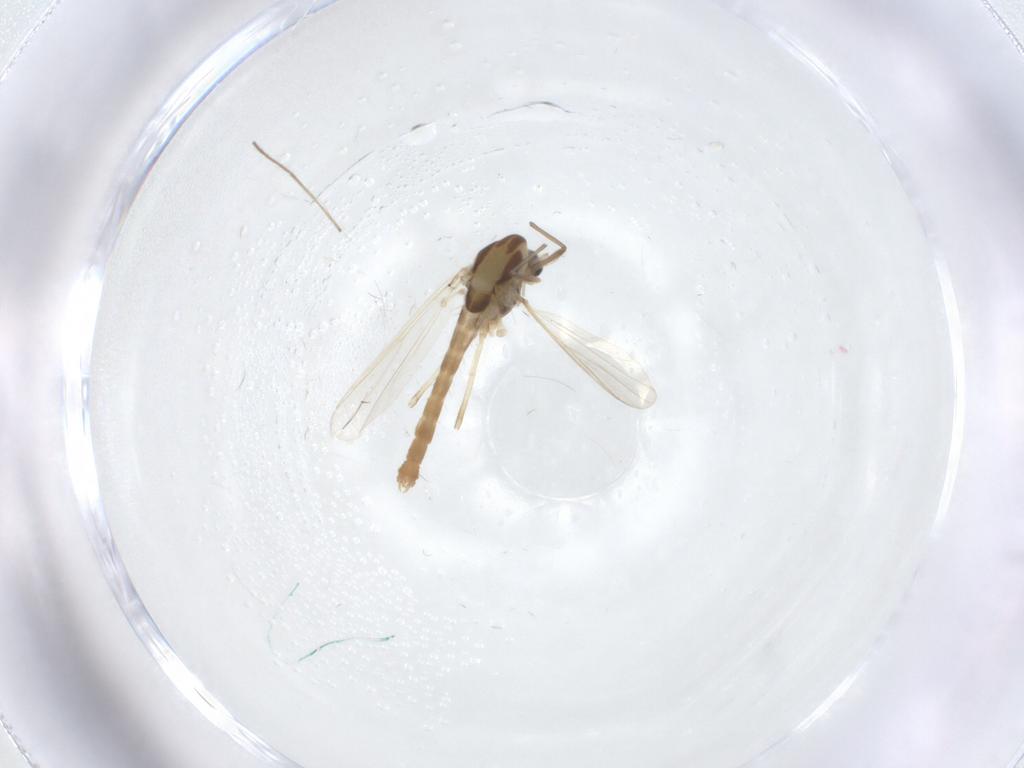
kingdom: Animalia
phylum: Arthropoda
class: Insecta
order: Diptera
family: Chironomidae
